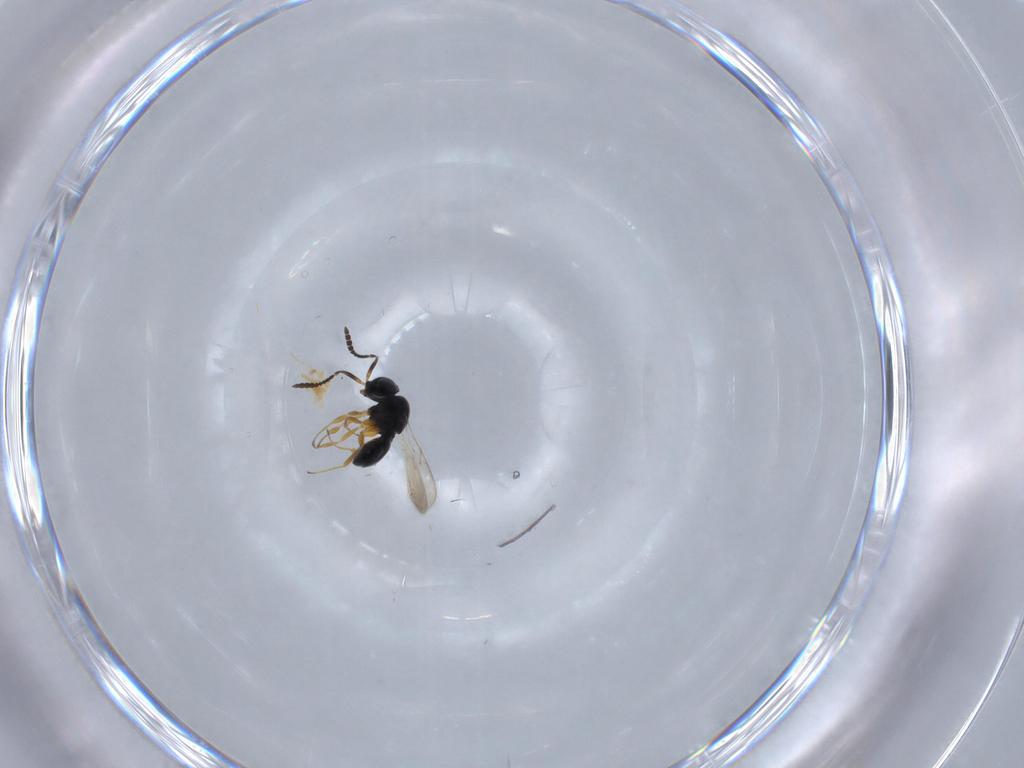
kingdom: Animalia
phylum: Arthropoda
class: Insecta
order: Hymenoptera
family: Scelionidae
